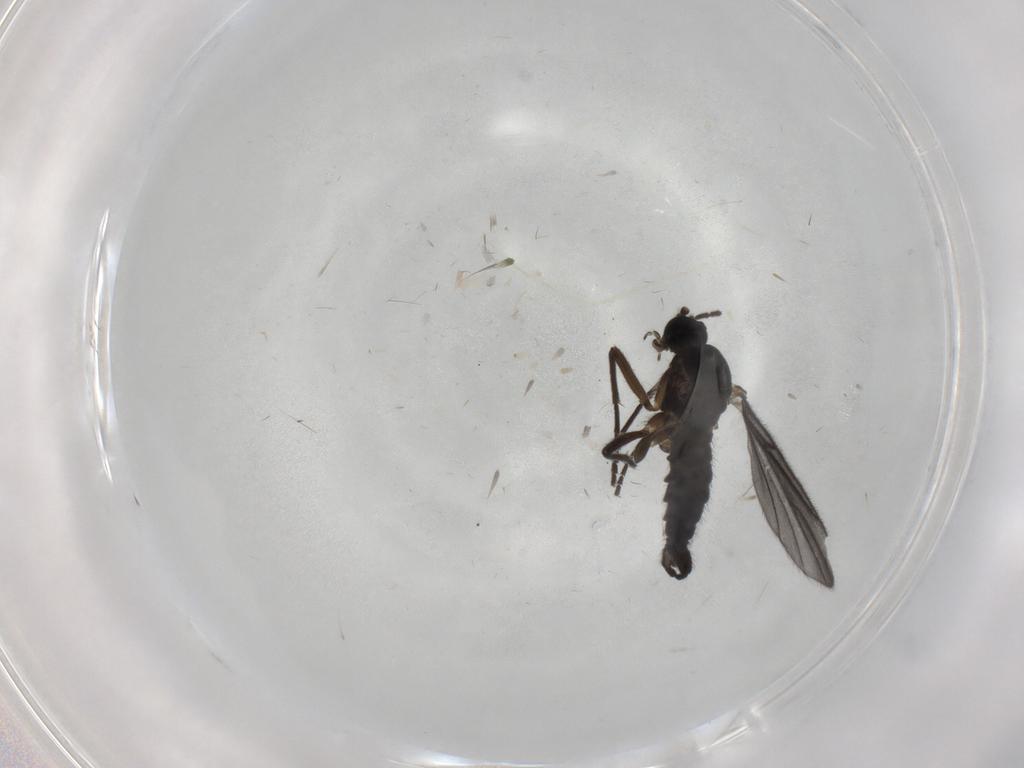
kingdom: Animalia
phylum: Arthropoda
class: Insecta
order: Diptera
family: Sciaridae
